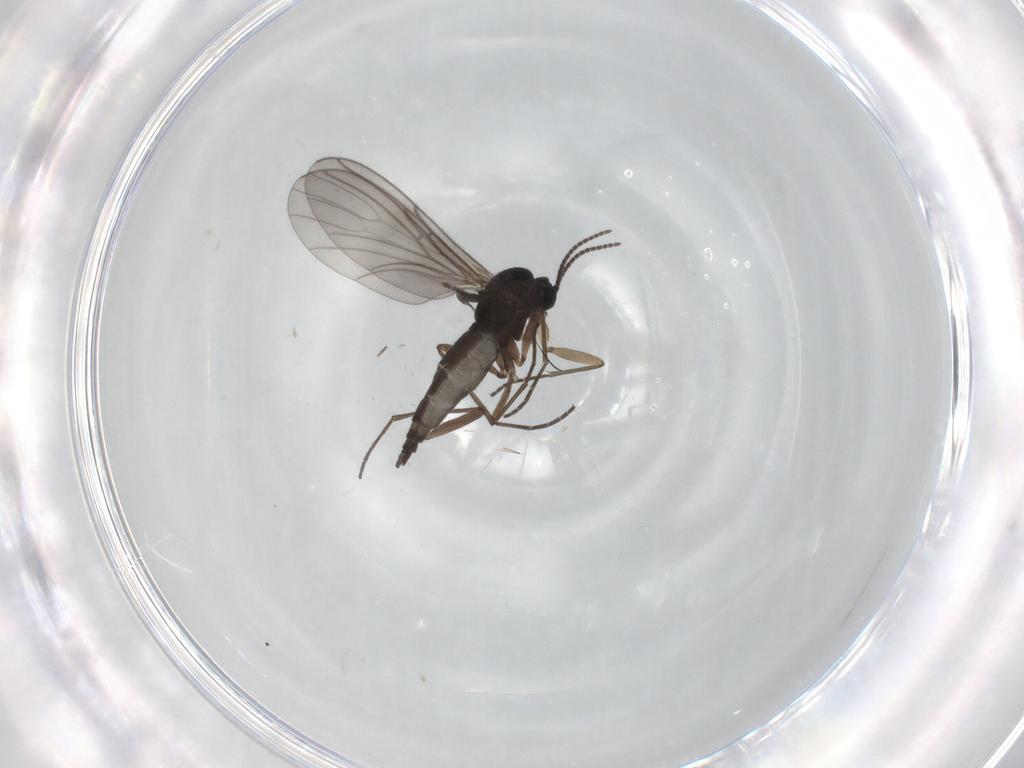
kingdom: Animalia
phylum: Arthropoda
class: Insecta
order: Diptera
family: Sciaridae
